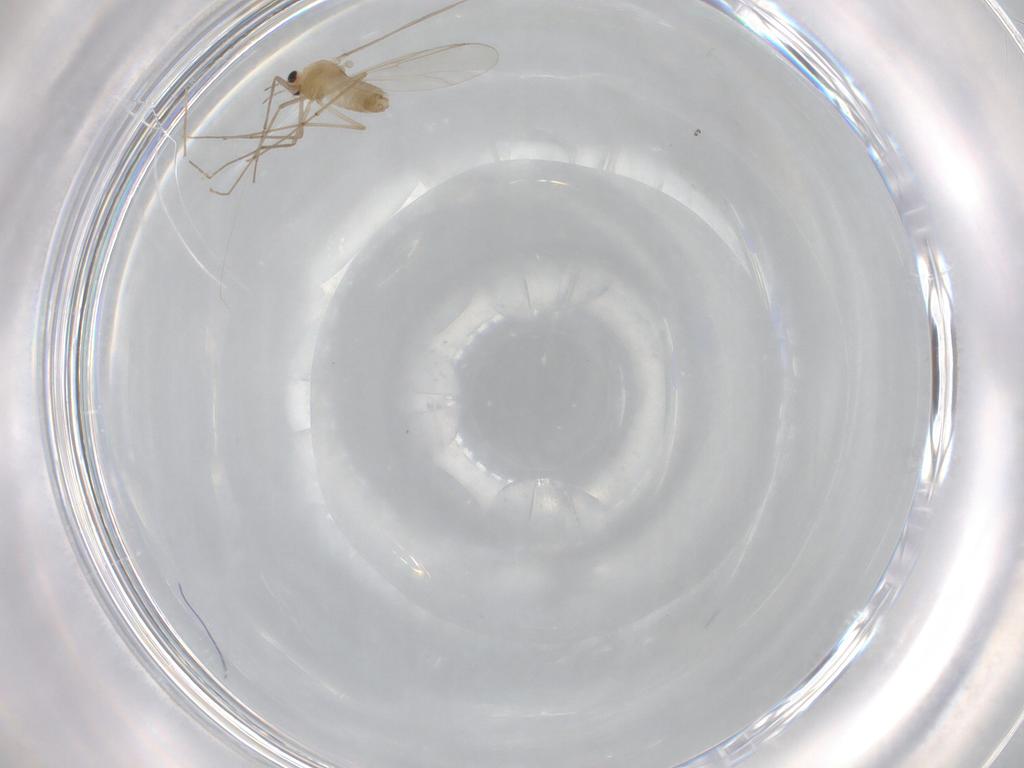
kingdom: Animalia
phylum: Arthropoda
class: Insecta
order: Diptera
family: Chironomidae
